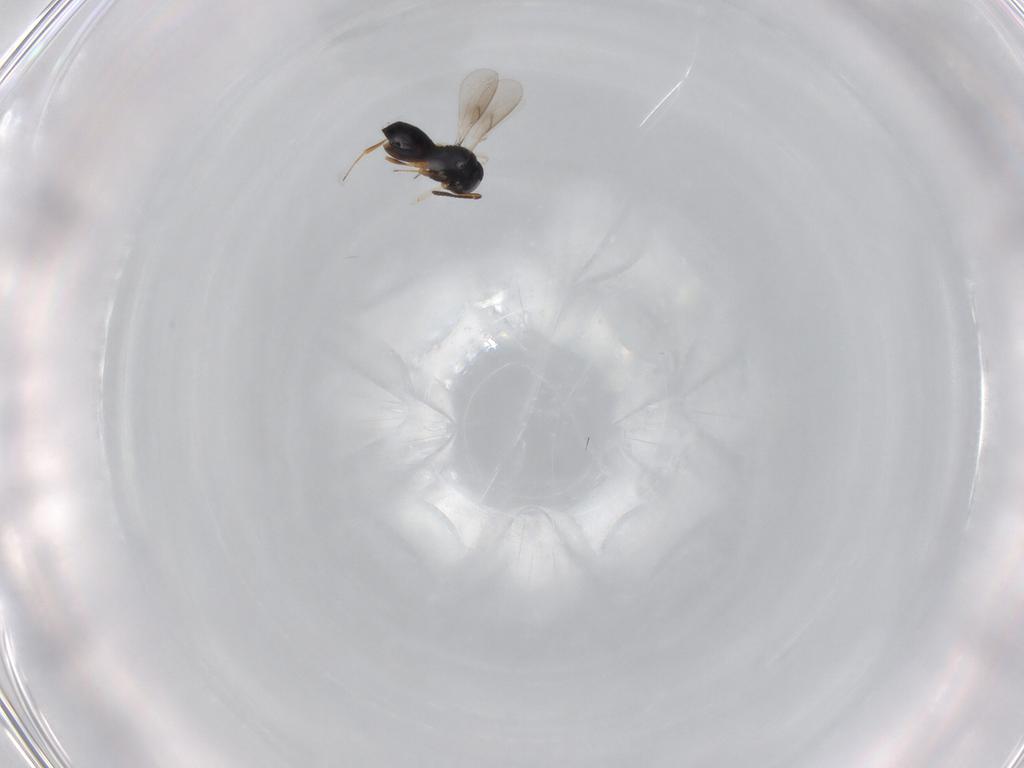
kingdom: Animalia
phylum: Arthropoda
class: Insecta
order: Hymenoptera
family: Scelionidae
